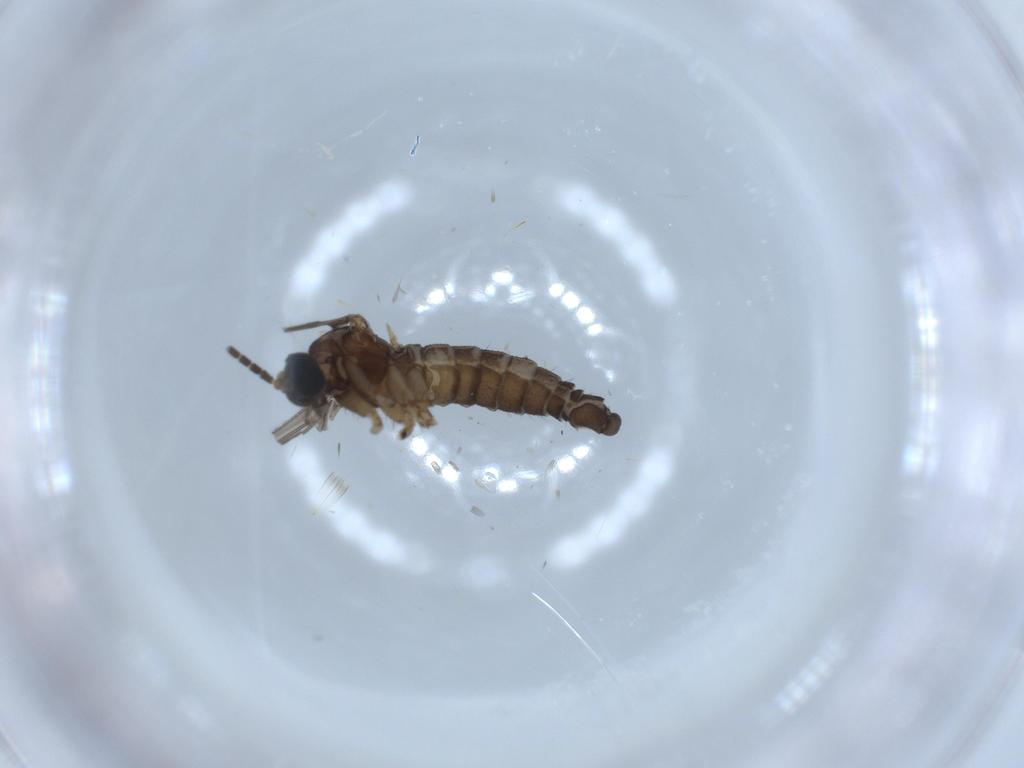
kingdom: Animalia
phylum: Arthropoda
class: Insecta
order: Diptera
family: Sciaridae
